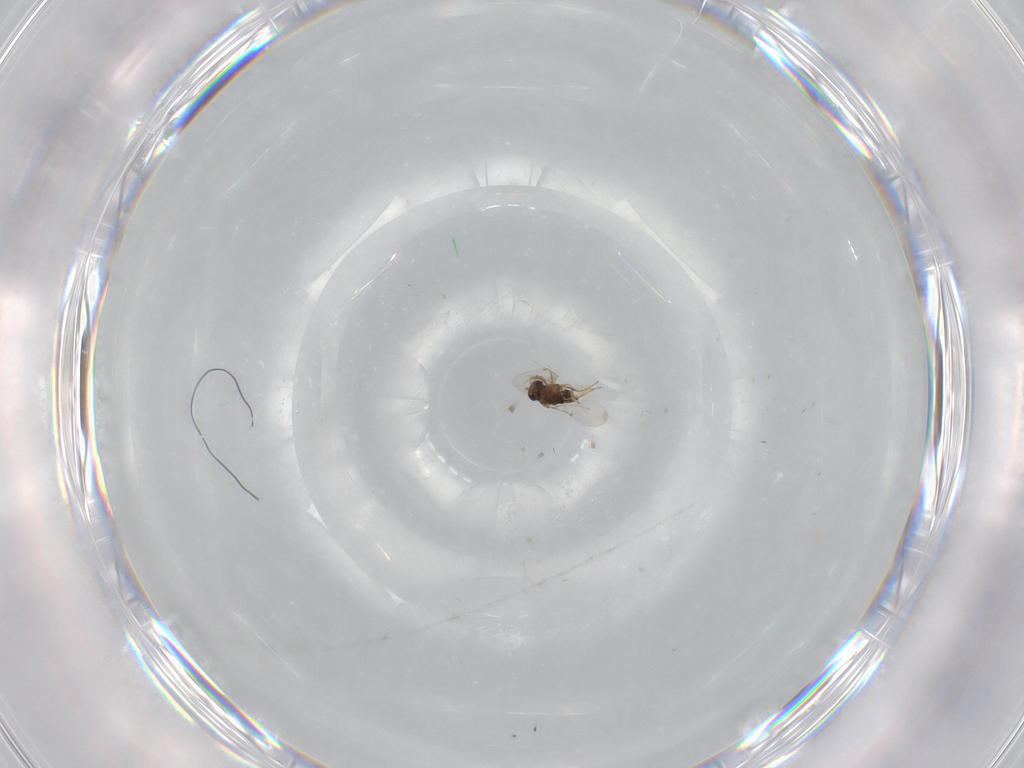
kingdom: Animalia
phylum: Arthropoda
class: Insecta
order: Hymenoptera
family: Encyrtidae
